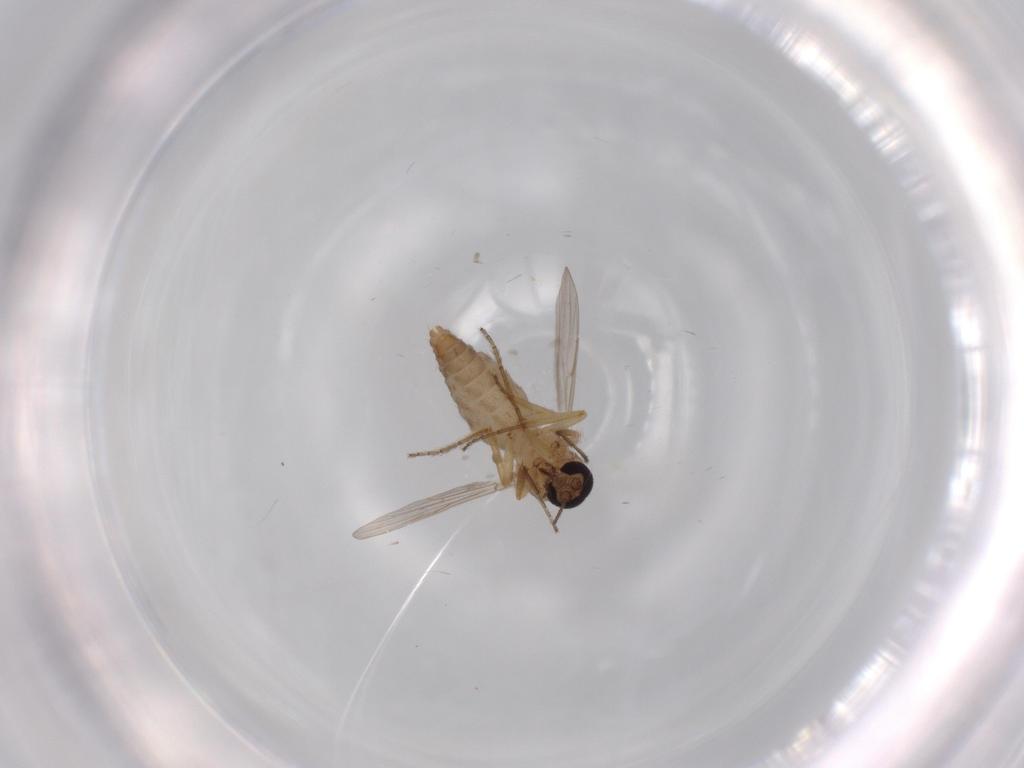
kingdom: Animalia
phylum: Arthropoda
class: Insecta
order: Diptera
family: Ceratopogonidae
